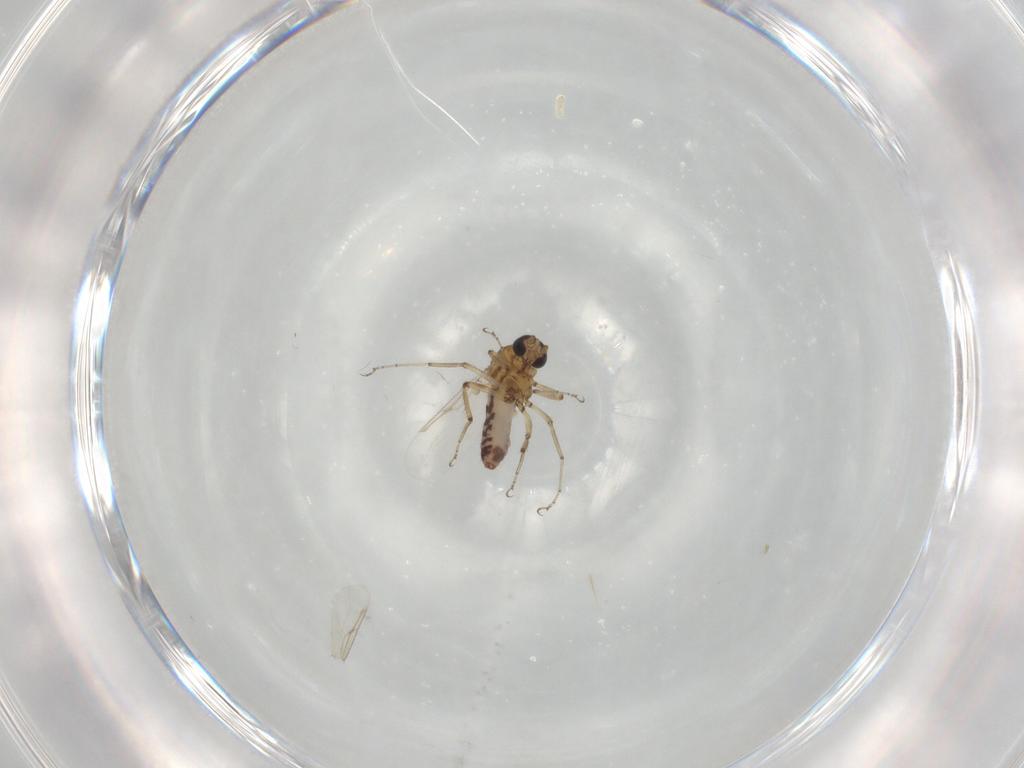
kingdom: Animalia
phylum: Arthropoda
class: Insecta
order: Diptera
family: Ceratopogonidae
